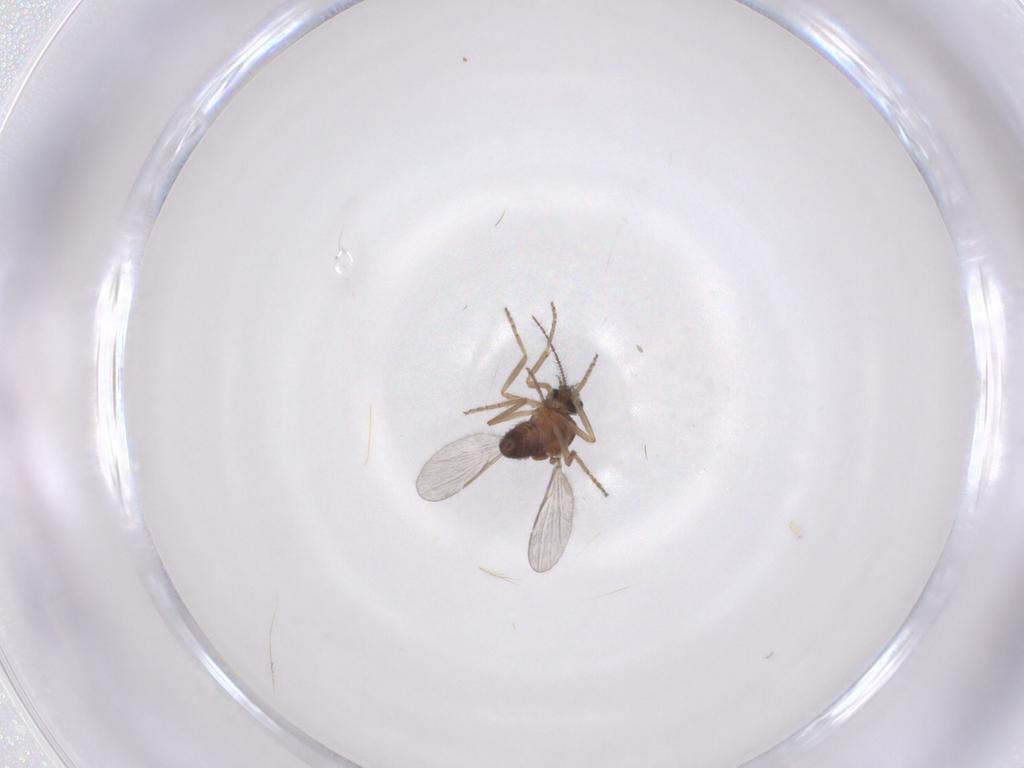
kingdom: Animalia
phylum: Arthropoda
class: Insecta
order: Diptera
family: Ceratopogonidae
